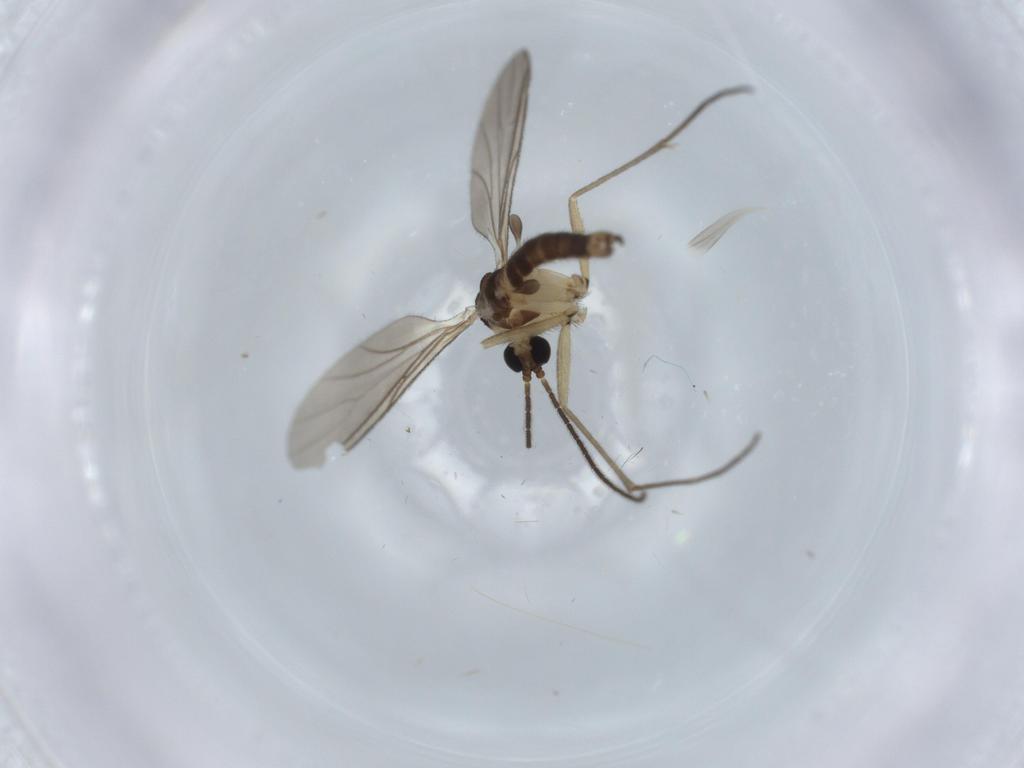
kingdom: Animalia
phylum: Arthropoda
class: Insecta
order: Diptera
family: Sciaridae
